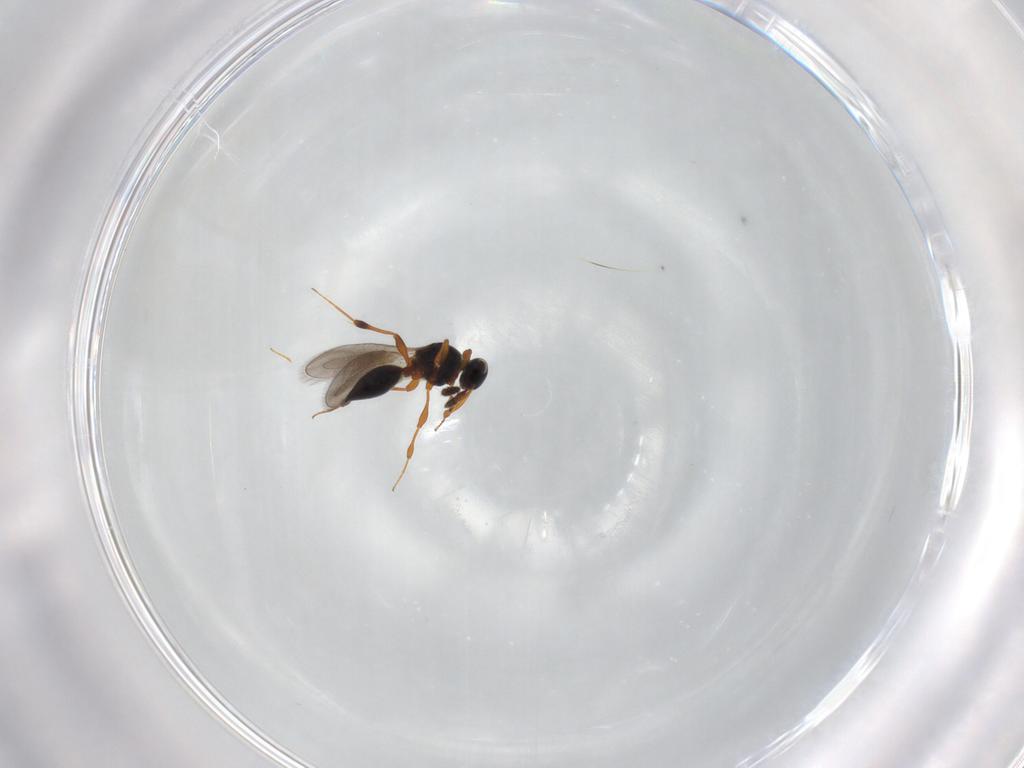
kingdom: Animalia
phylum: Arthropoda
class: Insecta
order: Hymenoptera
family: Platygastridae
